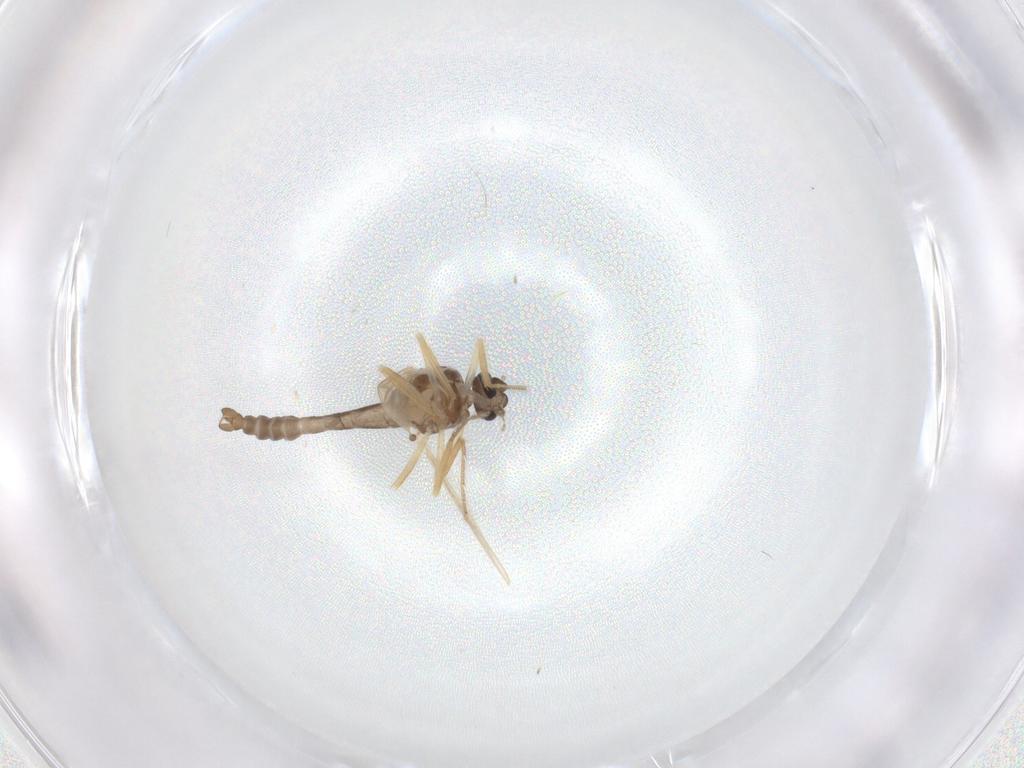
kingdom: Animalia
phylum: Arthropoda
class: Insecta
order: Diptera
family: Ceratopogonidae
